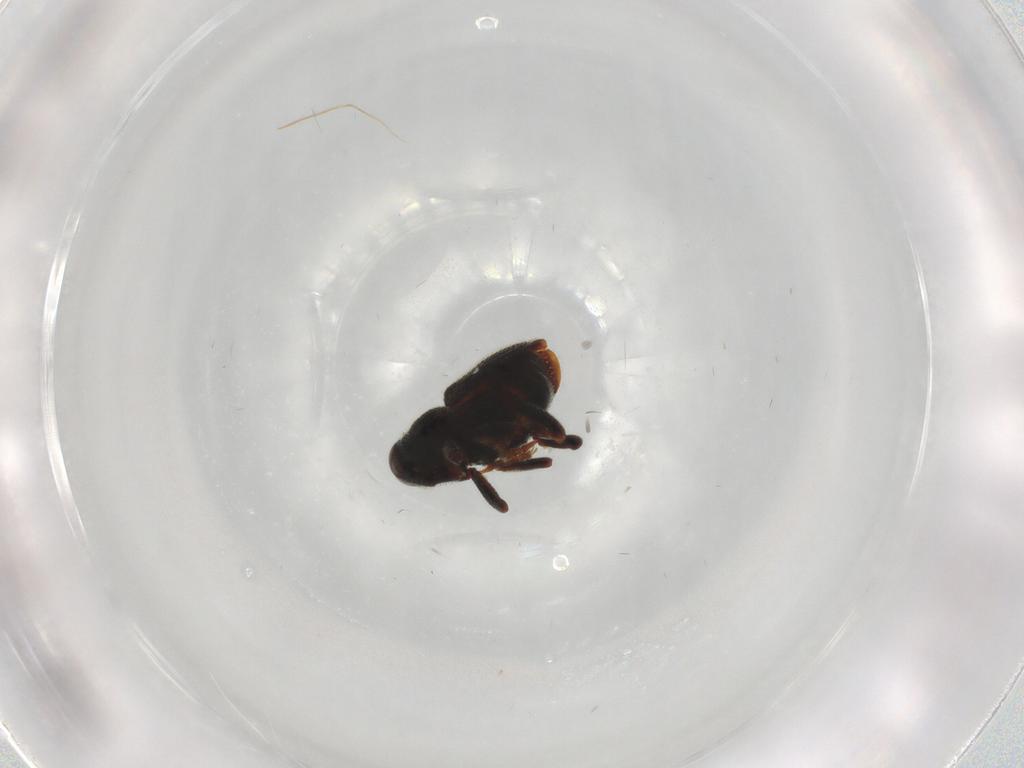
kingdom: Animalia
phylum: Arthropoda
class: Insecta
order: Coleoptera
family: Curculionidae
